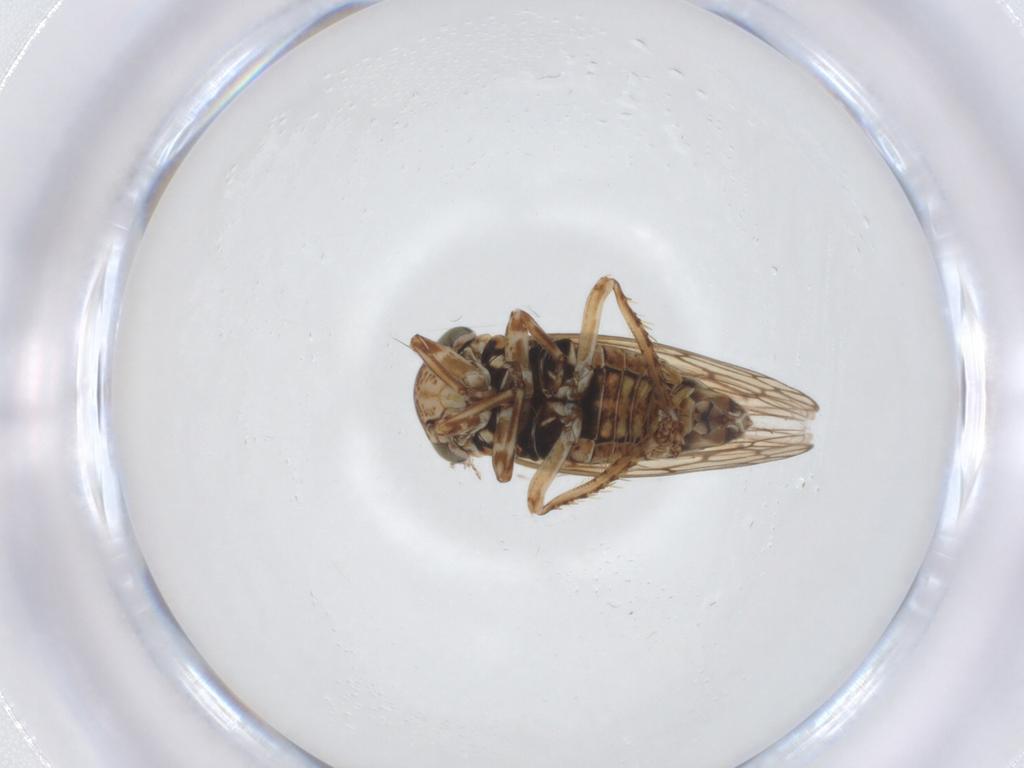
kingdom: Animalia
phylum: Arthropoda
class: Insecta
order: Hemiptera
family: Cicadellidae
